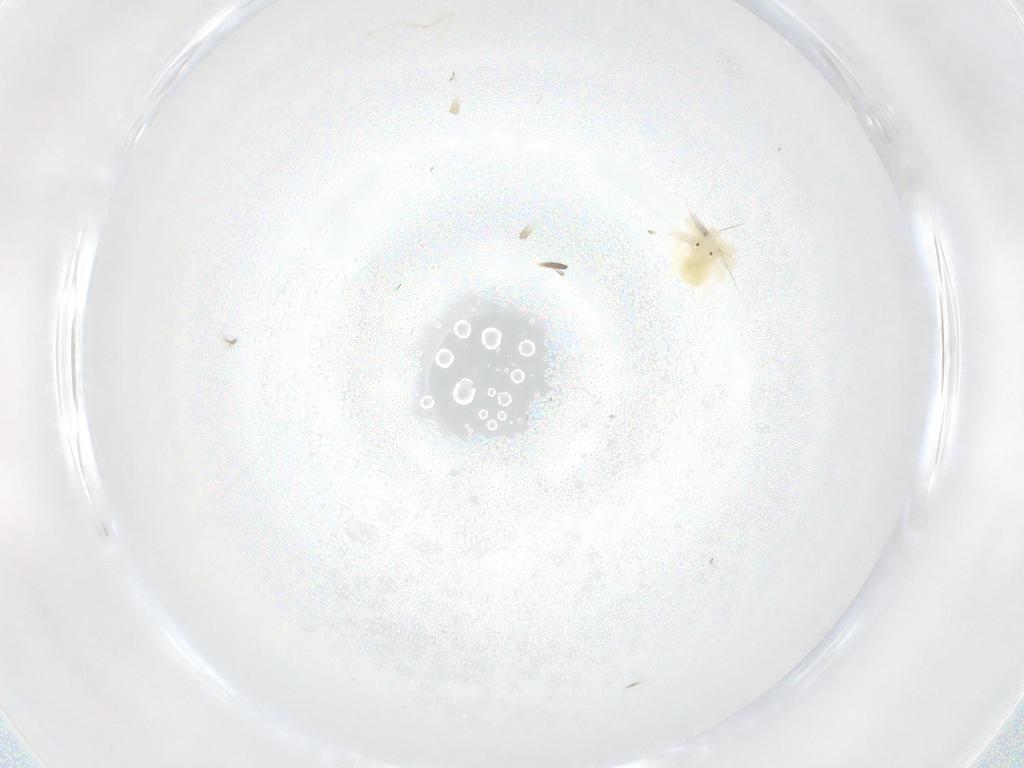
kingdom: Animalia
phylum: Arthropoda
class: Arachnida
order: Trombidiformes
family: Anystidae
